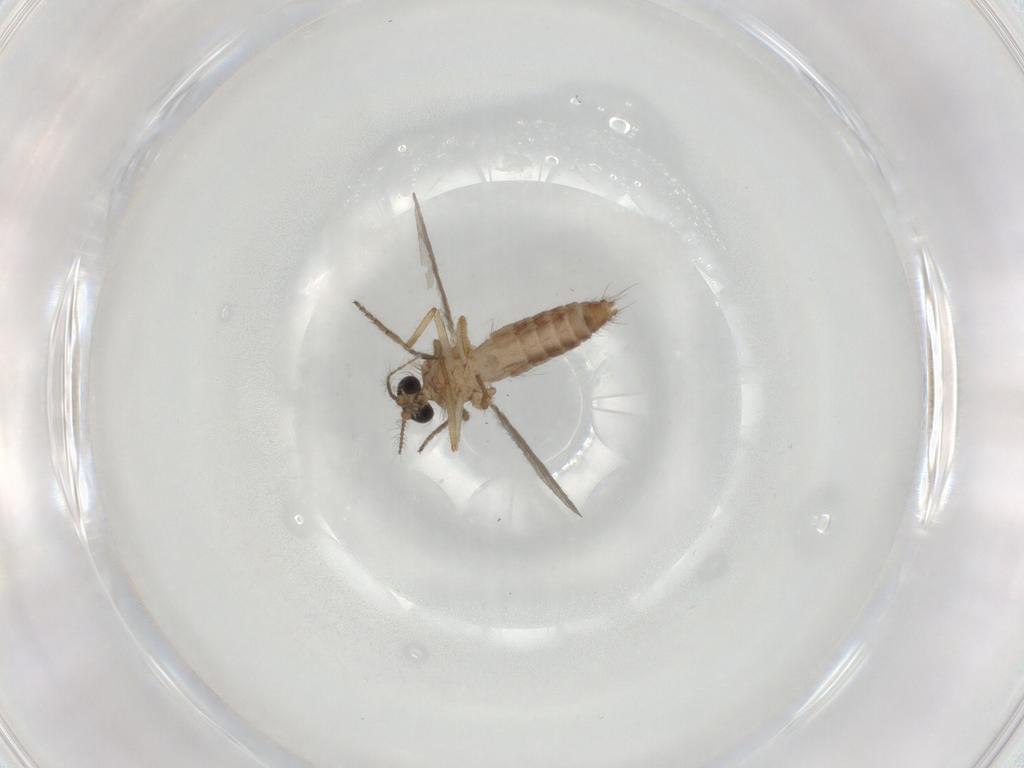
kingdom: Animalia
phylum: Arthropoda
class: Insecta
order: Diptera
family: Ceratopogonidae
